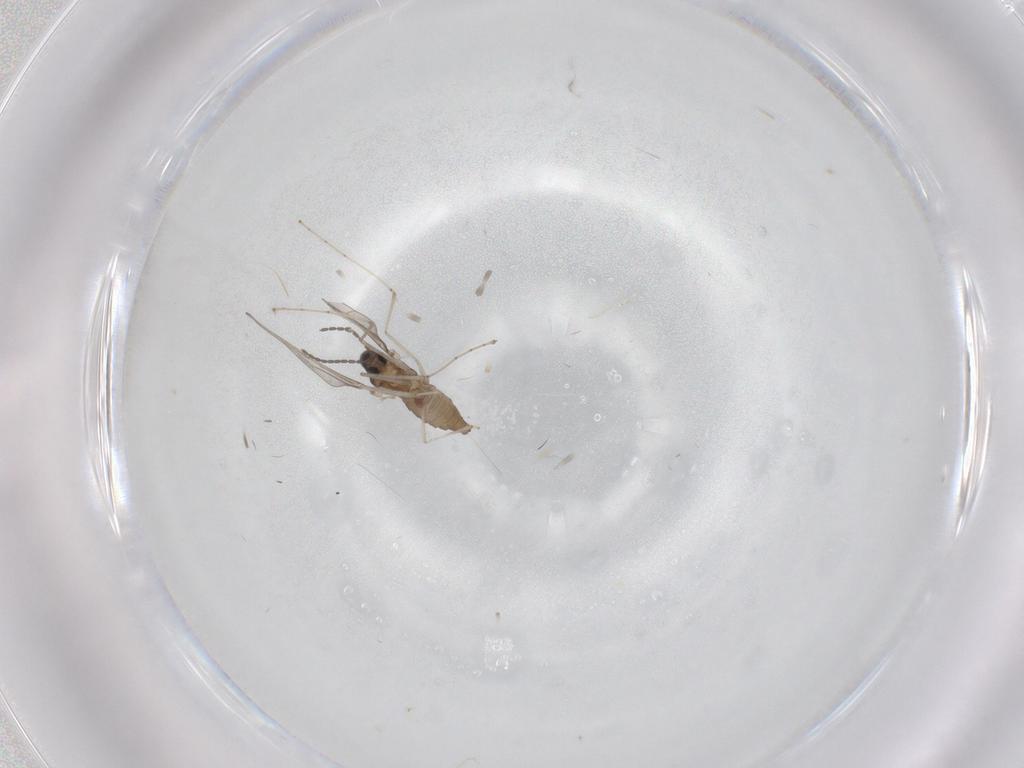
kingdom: Animalia
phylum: Arthropoda
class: Insecta
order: Diptera
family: Cecidomyiidae
